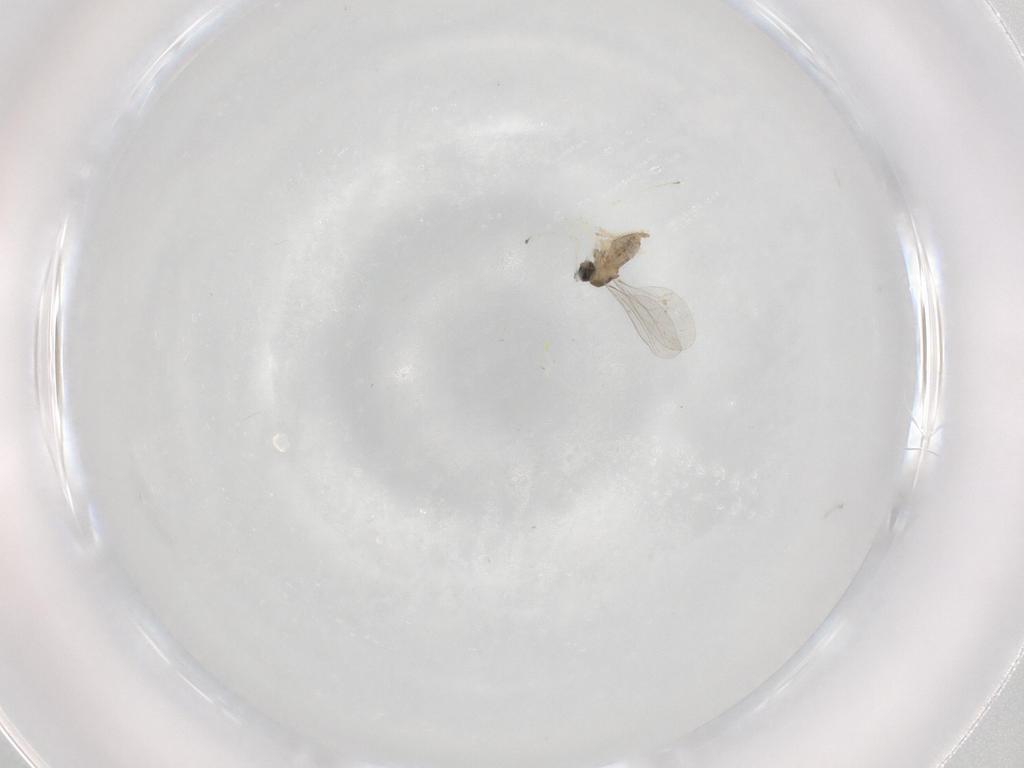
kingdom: Animalia
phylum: Arthropoda
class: Insecta
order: Diptera
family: Cecidomyiidae
